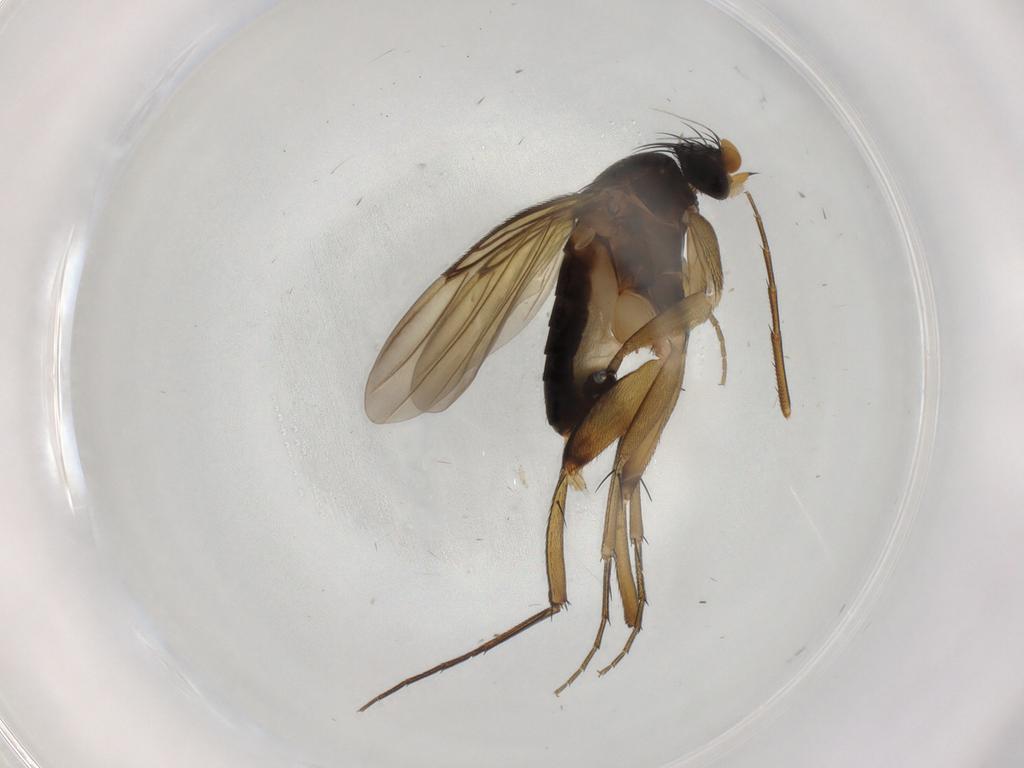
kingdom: Animalia
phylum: Arthropoda
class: Insecta
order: Diptera
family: Phoridae
